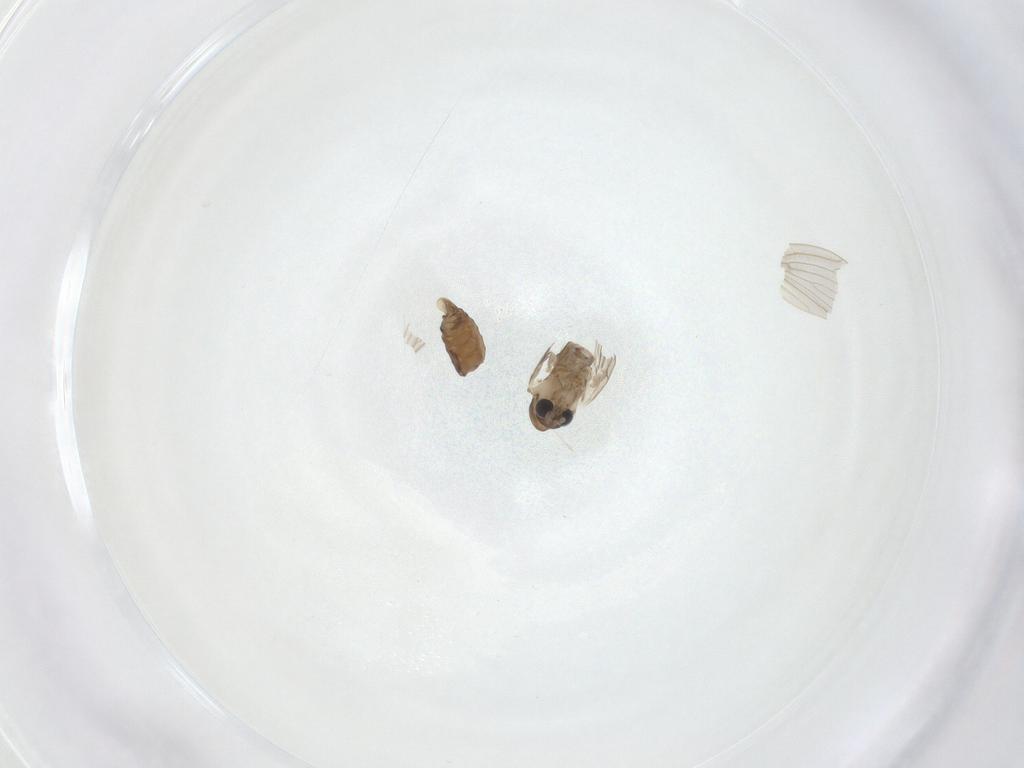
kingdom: Animalia
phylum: Arthropoda
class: Insecta
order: Diptera
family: Psychodidae
